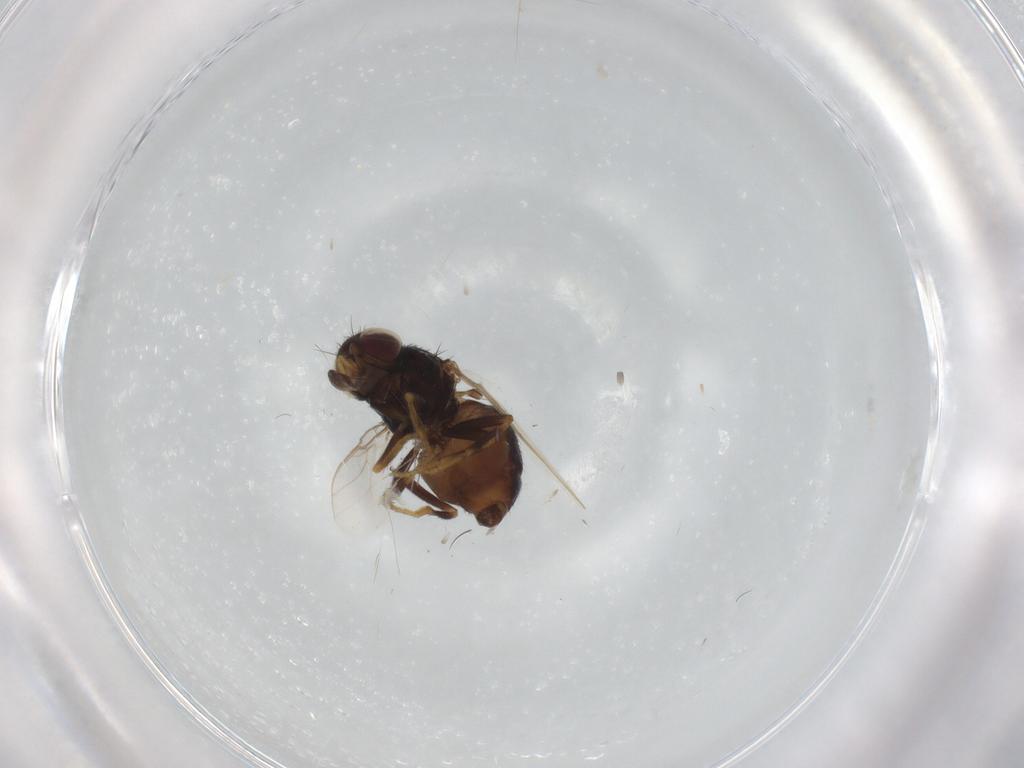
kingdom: Animalia
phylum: Arthropoda
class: Insecta
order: Diptera
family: Chloropidae
